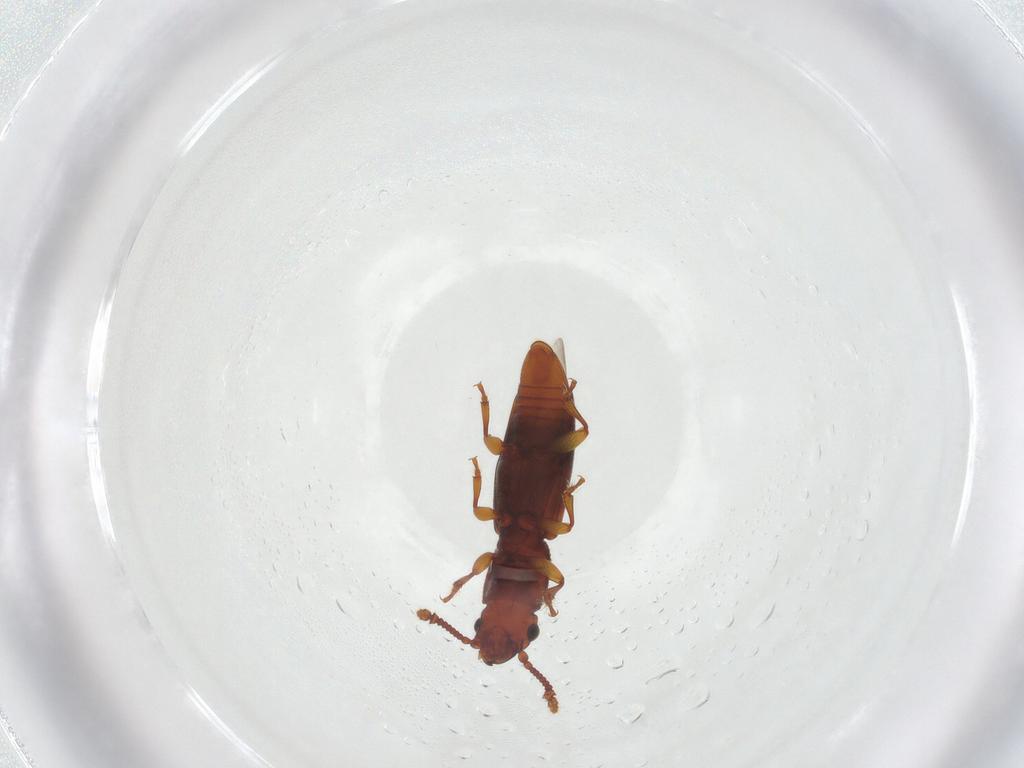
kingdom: Animalia
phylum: Arthropoda
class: Insecta
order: Coleoptera
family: Monotomidae
